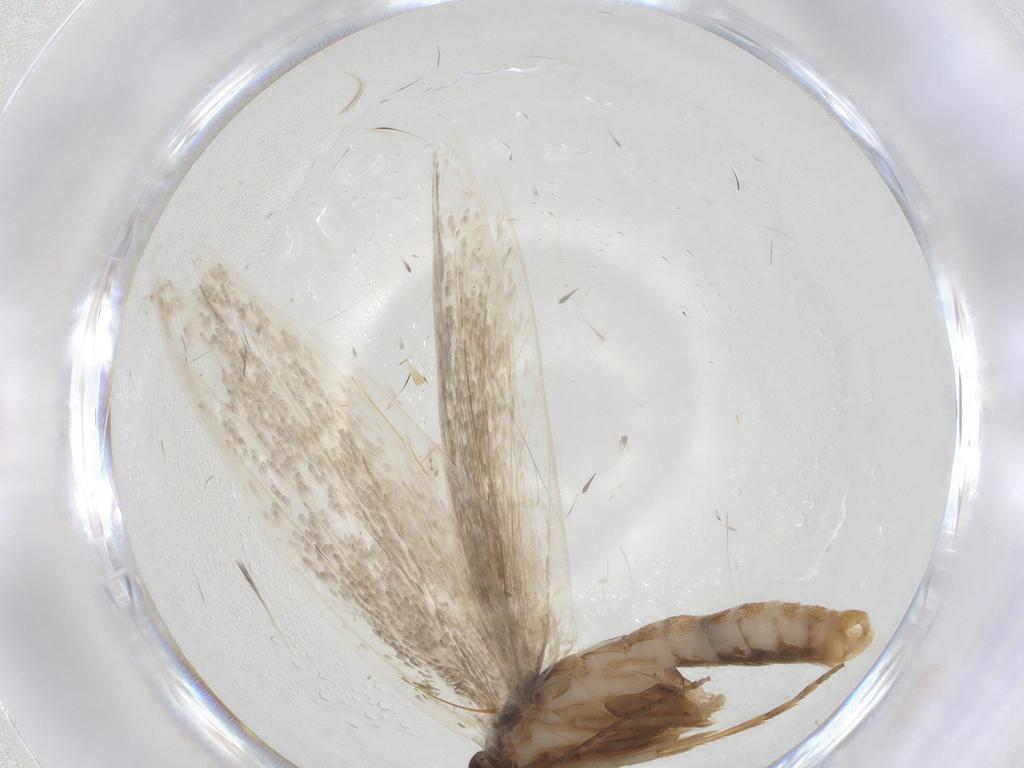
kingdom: Animalia
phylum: Arthropoda
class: Insecta
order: Lepidoptera
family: Erebidae
